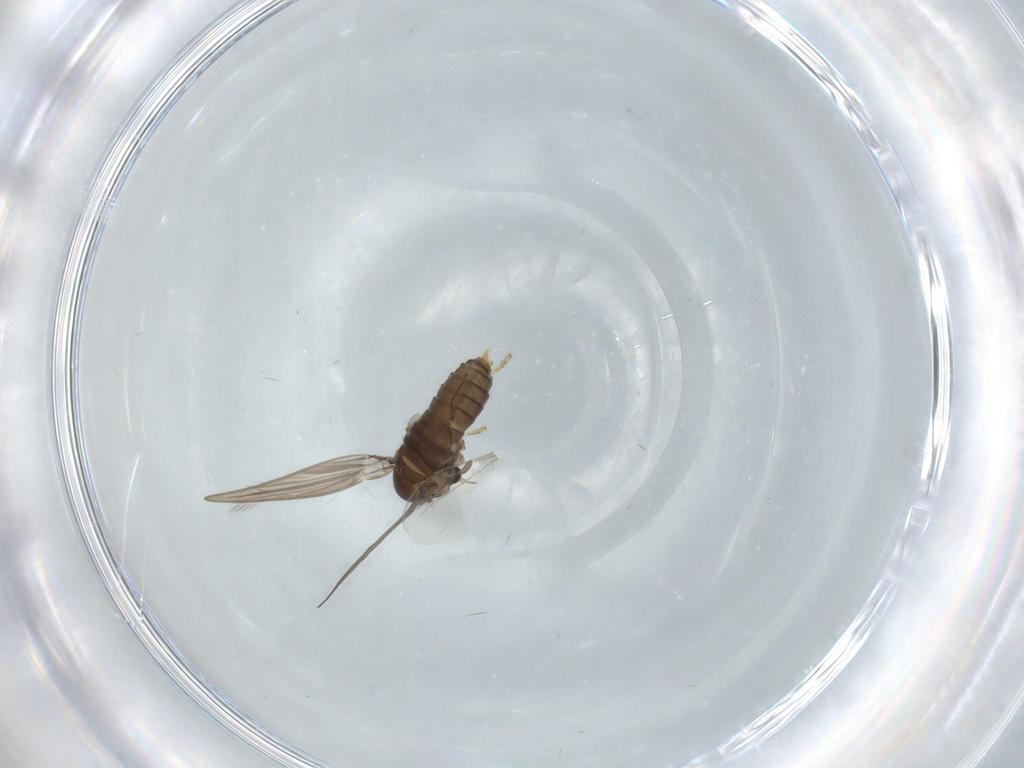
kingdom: Animalia
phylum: Arthropoda
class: Insecta
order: Diptera
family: Psychodidae
